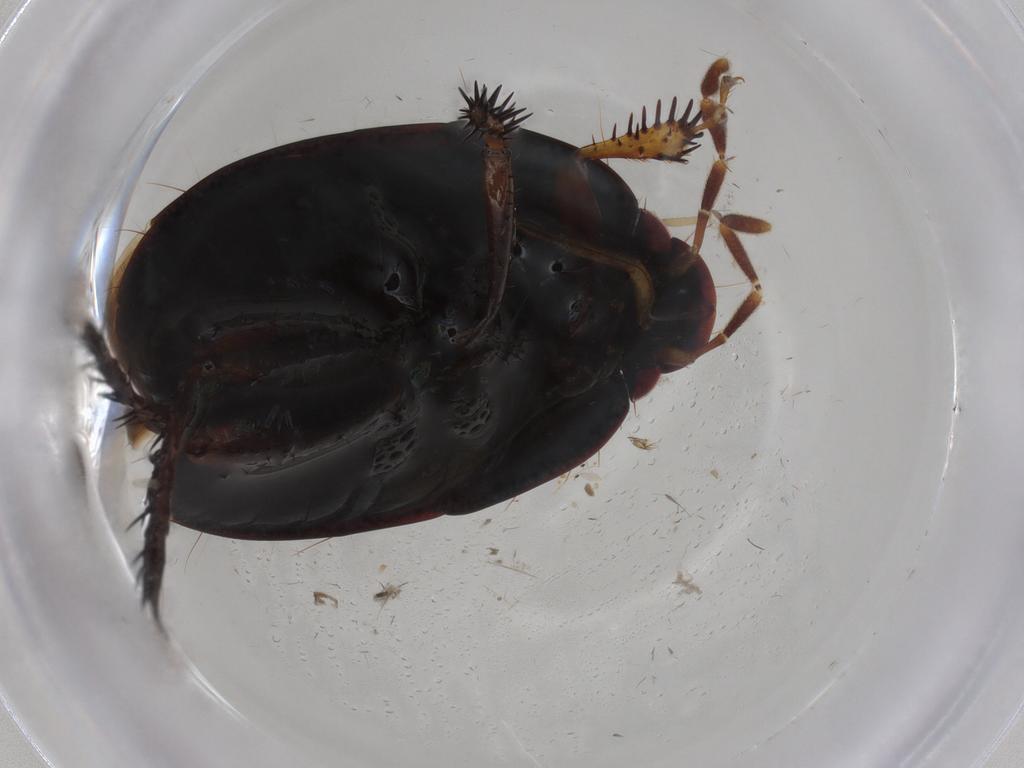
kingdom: Animalia
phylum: Arthropoda
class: Insecta
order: Hemiptera
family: Cydnidae
